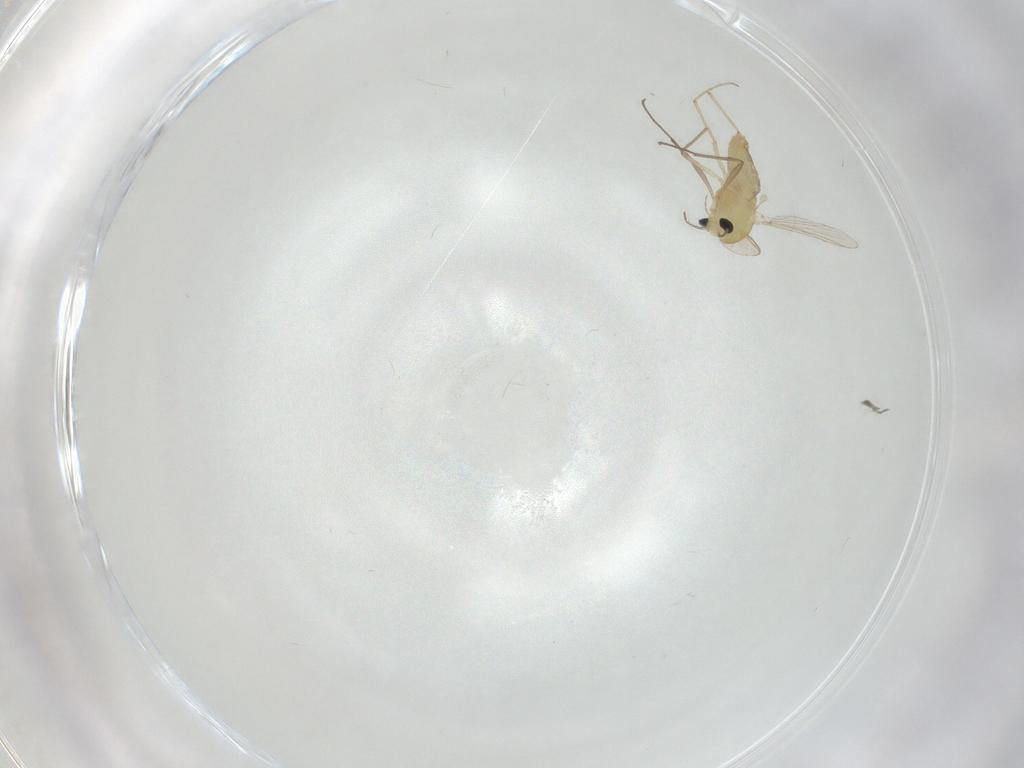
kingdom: Animalia
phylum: Arthropoda
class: Insecta
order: Diptera
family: Chironomidae
